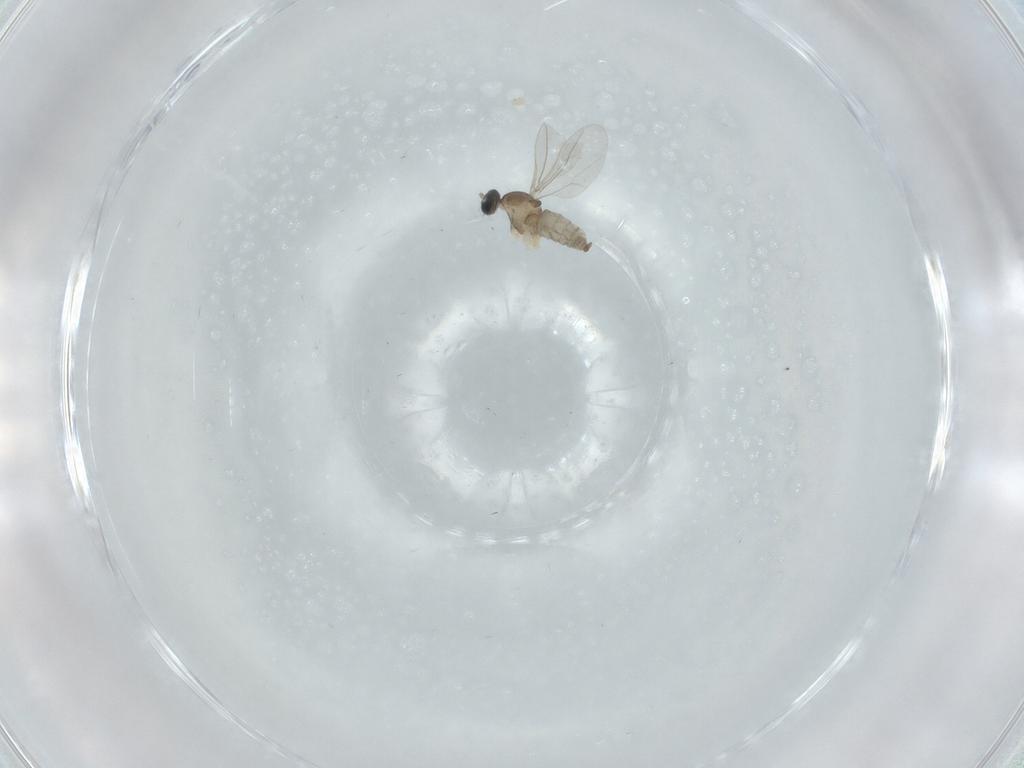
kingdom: Animalia
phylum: Arthropoda
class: Insecta
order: Diptera
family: Cecidomyiidae
